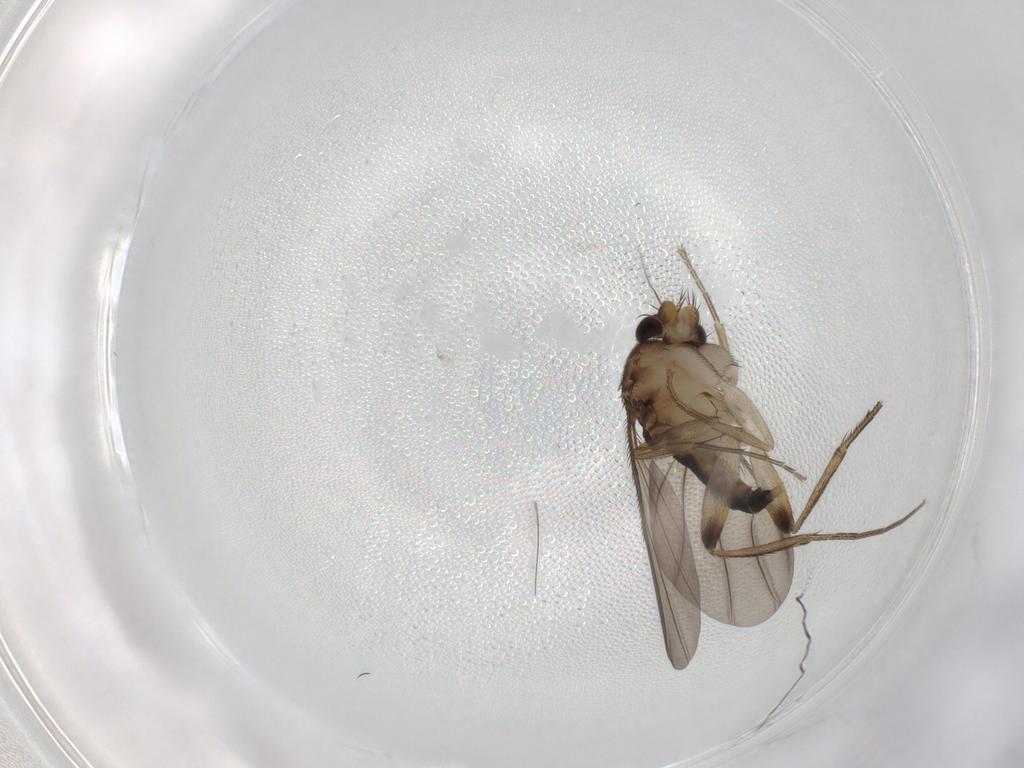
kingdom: Animalia
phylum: Arthropoda
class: Insecta
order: Diptera
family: Phoridae
